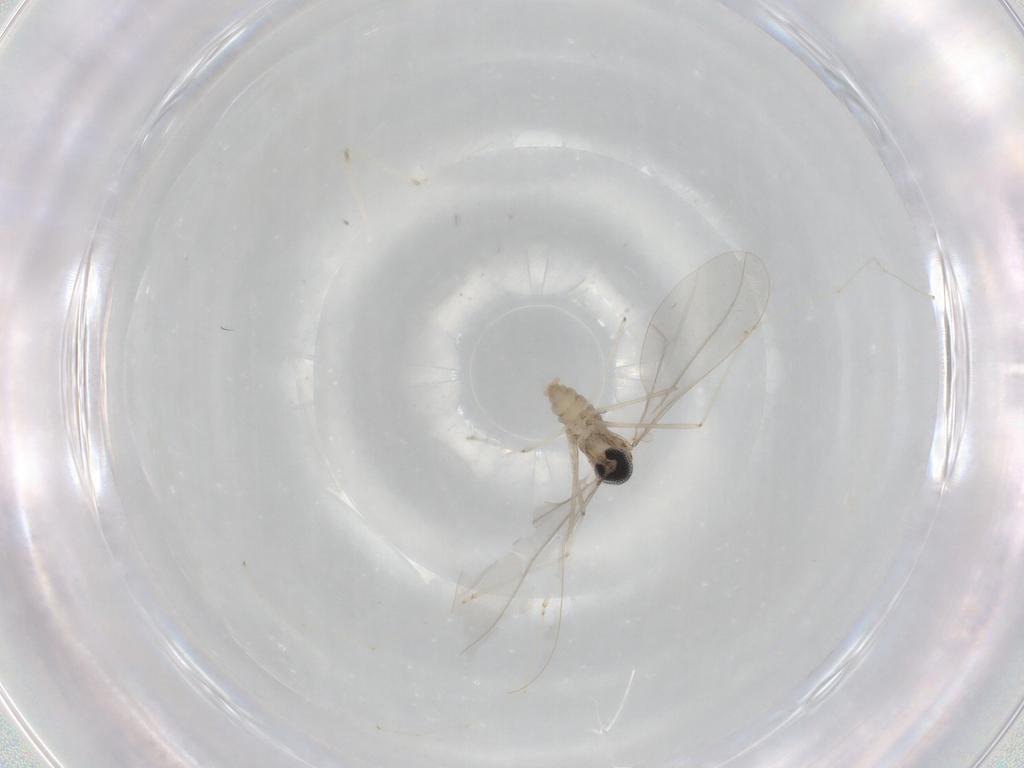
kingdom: Animalia
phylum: Arthropoda
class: Insecta
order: Diptera
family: Cecidomyiidae
